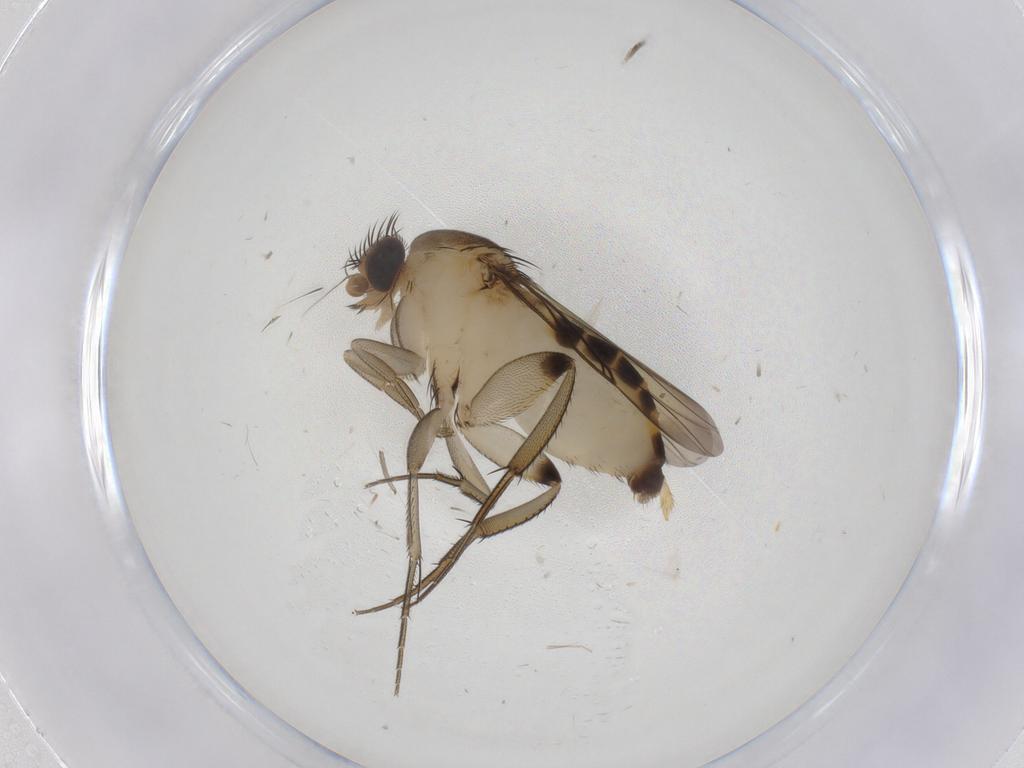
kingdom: Animalia
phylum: Arthropoda
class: Insecta
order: Diptera
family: Phoridae
